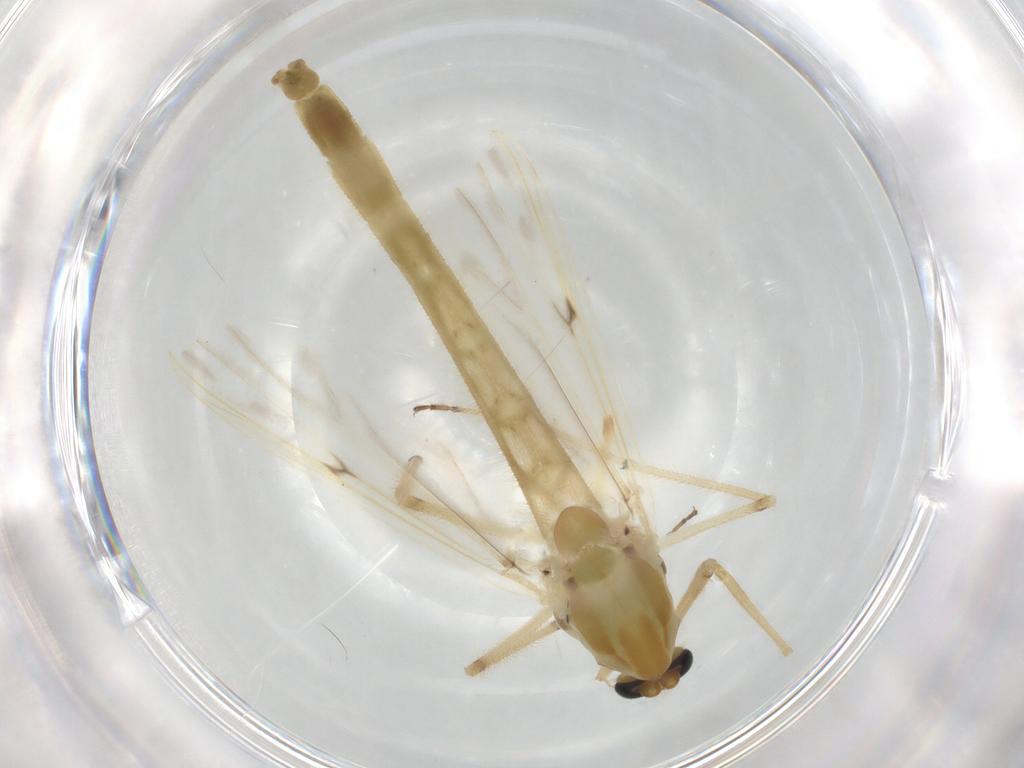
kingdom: Animalia
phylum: Arthropoda
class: Insecta
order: Diptera
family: Chironomidae
